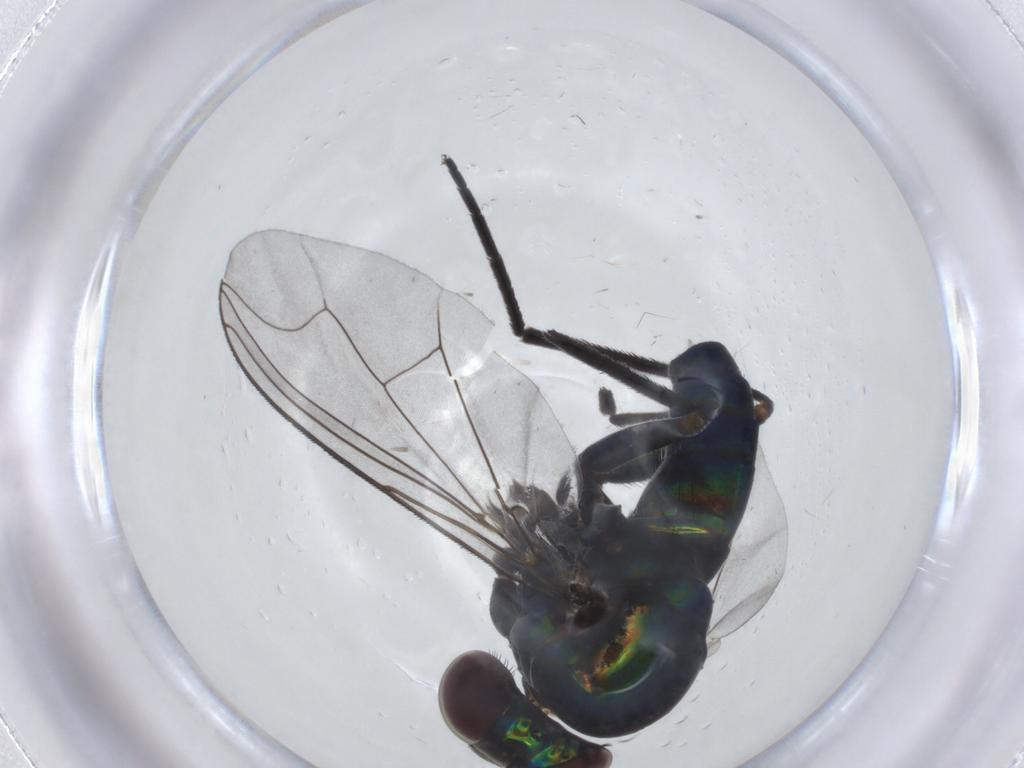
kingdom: Animalia
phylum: Arthropoda
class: Insecta
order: Diptera
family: Dolichopodidae
